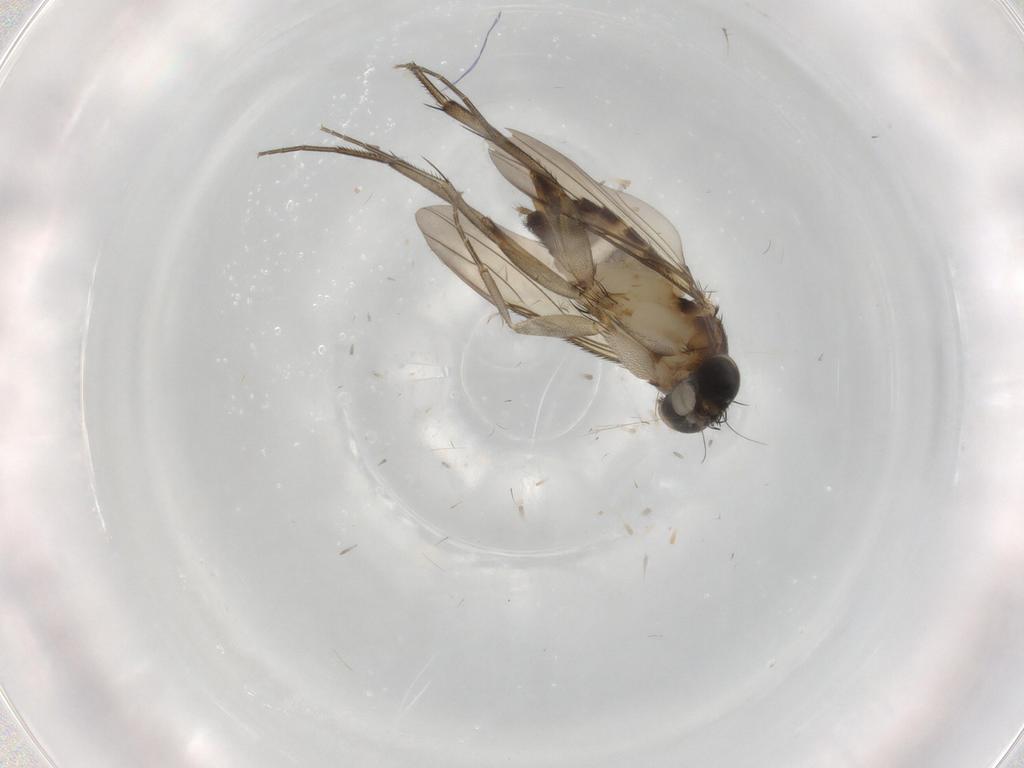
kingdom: Animalia
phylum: Arthropoda
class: Insecta
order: Diptera
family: Phoridae
